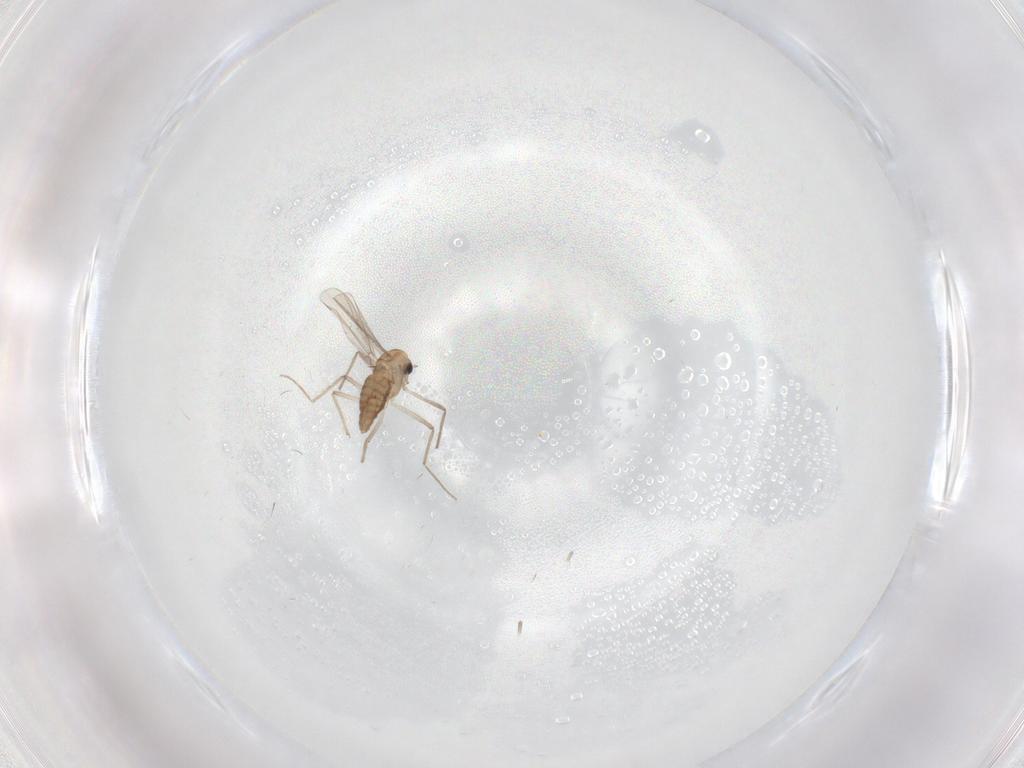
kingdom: Animalia
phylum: Arthropoda
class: Insecta
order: Diptera
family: Chironomidae
